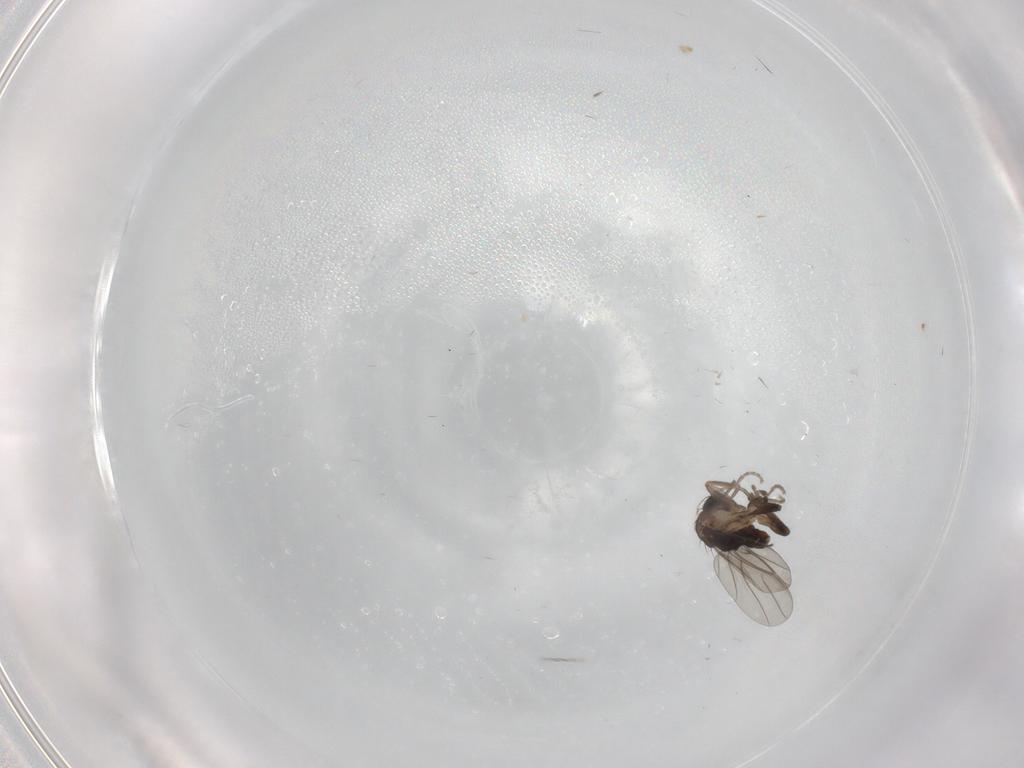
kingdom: Animalia
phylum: Arthropoda
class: Insecta
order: Diptera
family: Cecidomyiidae
